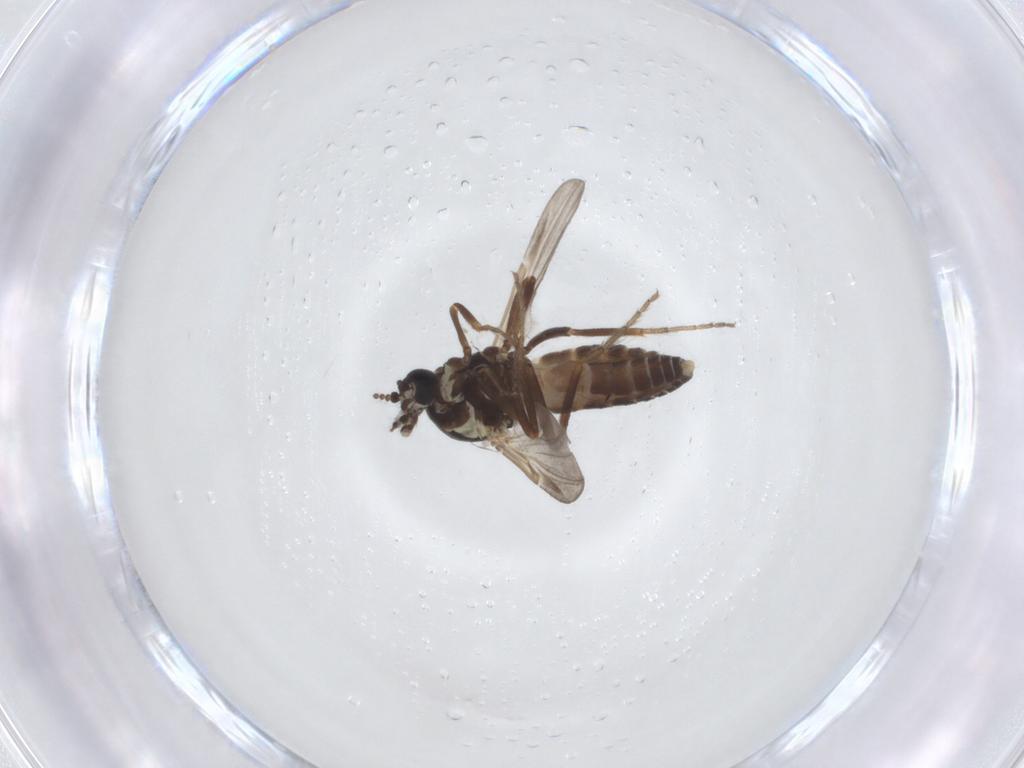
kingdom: Animalia
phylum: Arthropoda
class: Insecta
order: Diptera
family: Ceratopogonidae
